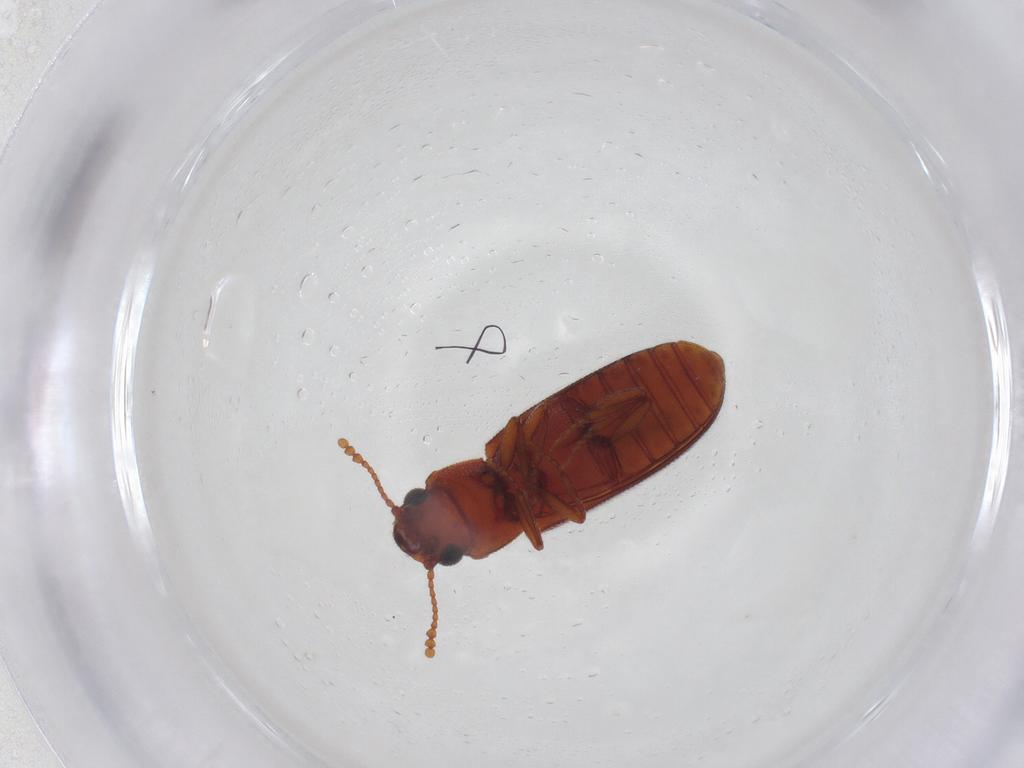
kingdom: Animalia
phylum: Arthropoda
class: Insecta
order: Coleoptera
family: Cryptophagidae
